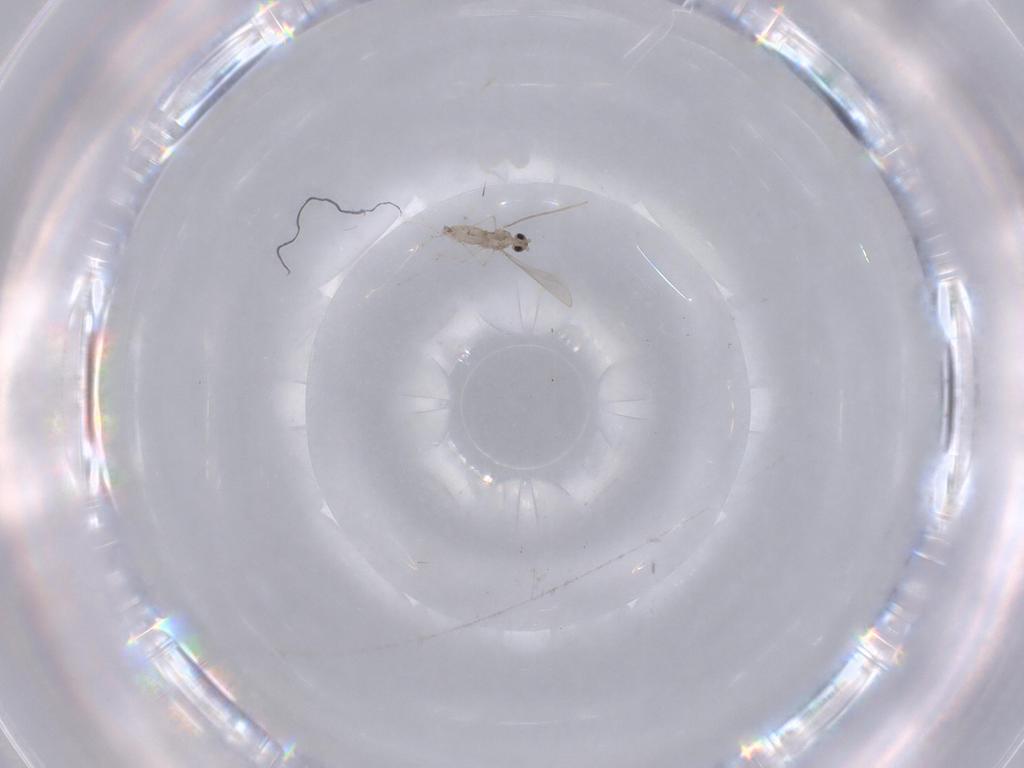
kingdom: Animalia
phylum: Arthropoda
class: Insecta
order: Diptera
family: Cecidomyiidae
